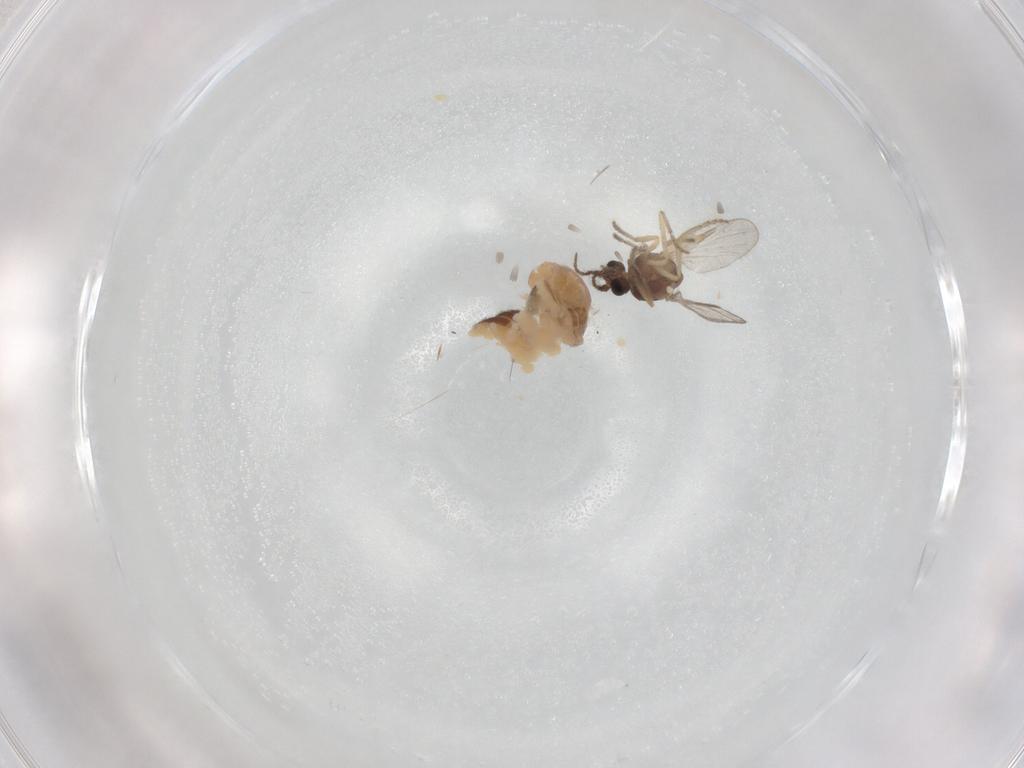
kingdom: Animalia
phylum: Arthropoda
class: Insecta
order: Diptera
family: Ceratopogonidae
